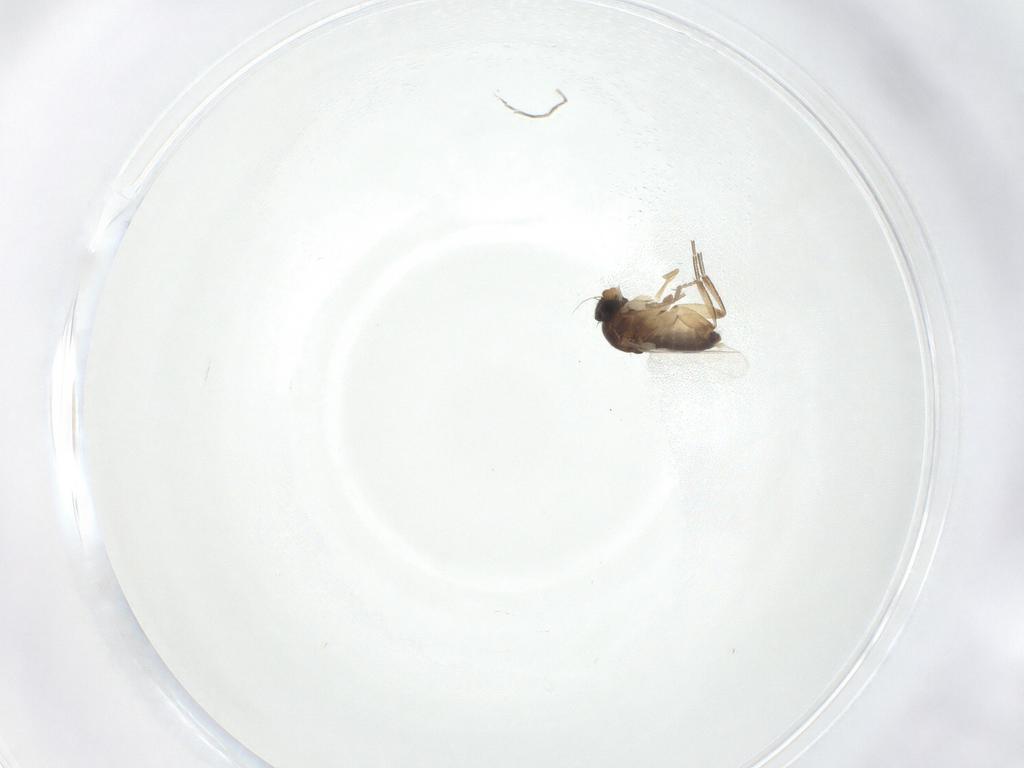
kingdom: Animalia
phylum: Arthropoda
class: Insecta
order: Diptera
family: Phoridae
